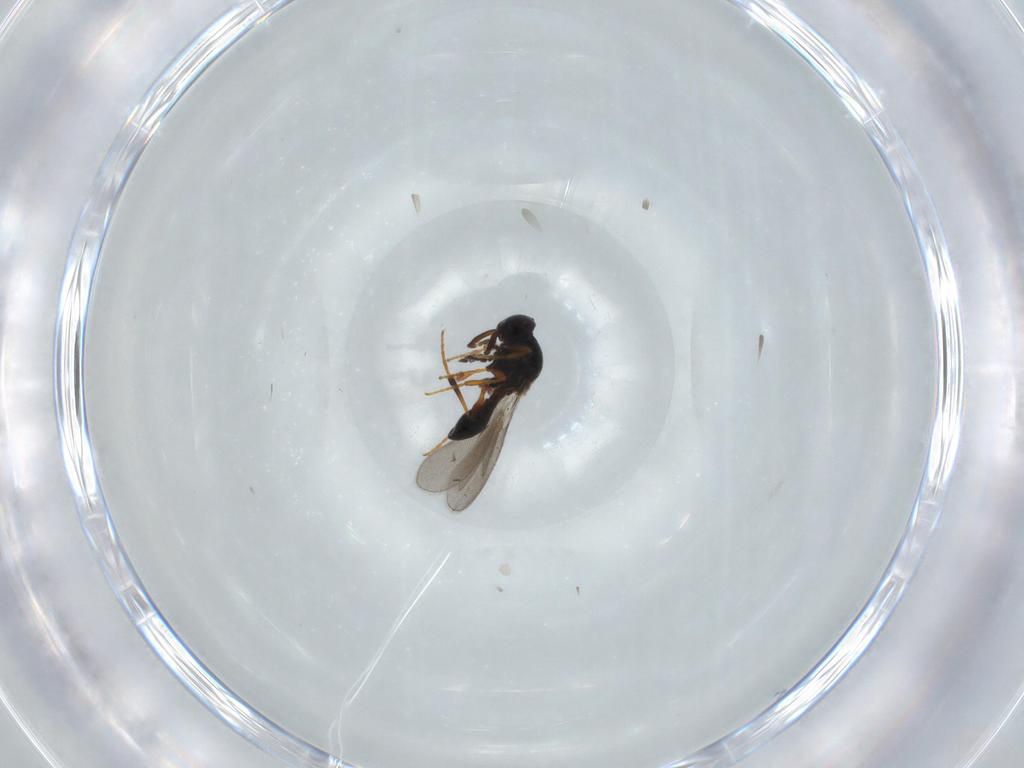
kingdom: Animalia
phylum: Arthropoda
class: Insecta
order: Hymenoptera
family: Platygastridae
